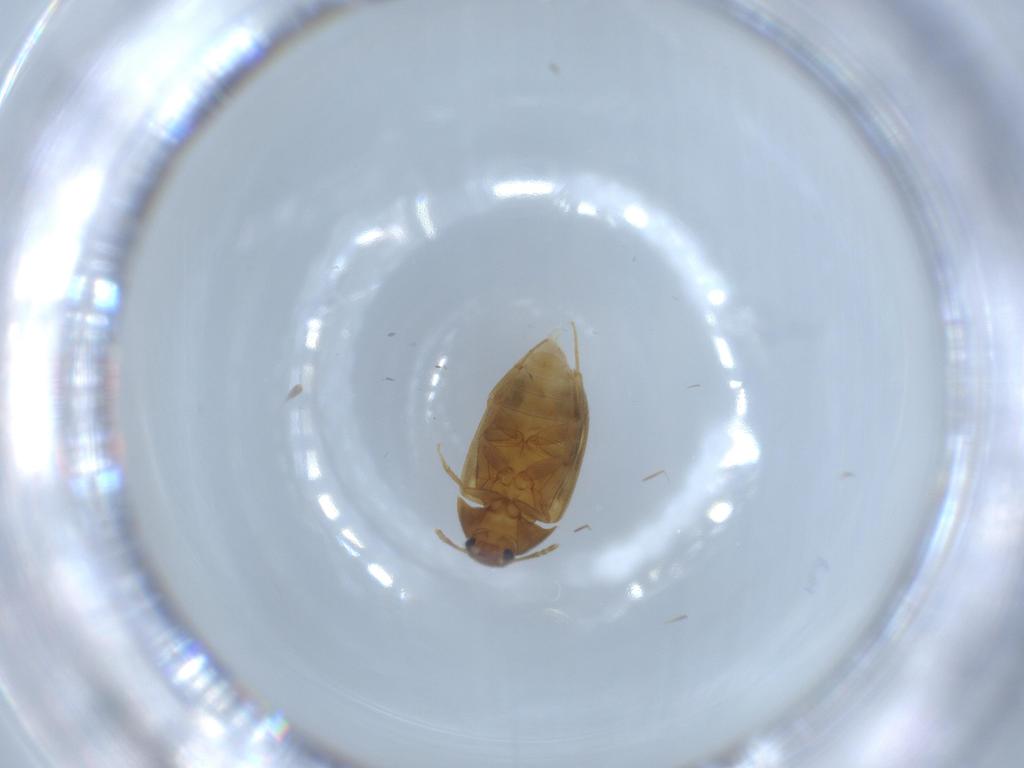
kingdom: Animalia
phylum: Arthropoda
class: Insecta
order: Coleoptera
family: Mycetophagidae
